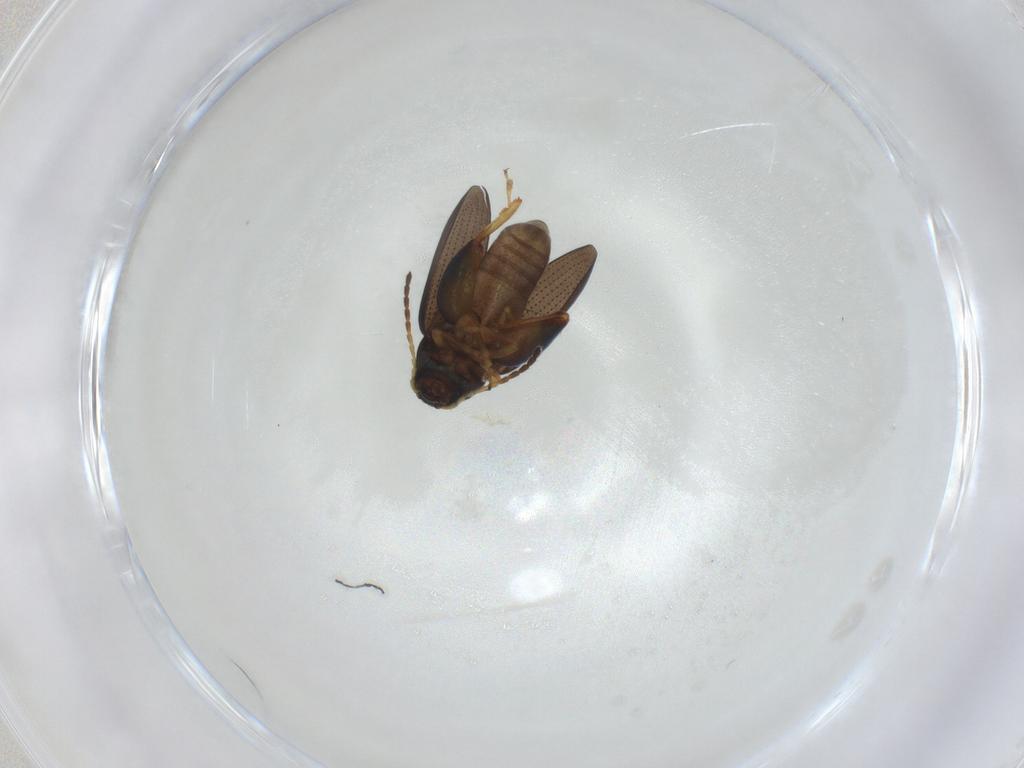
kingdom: Animalia
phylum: Arthropoda
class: Insecta
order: Coleoptera
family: Chrysomelidae
